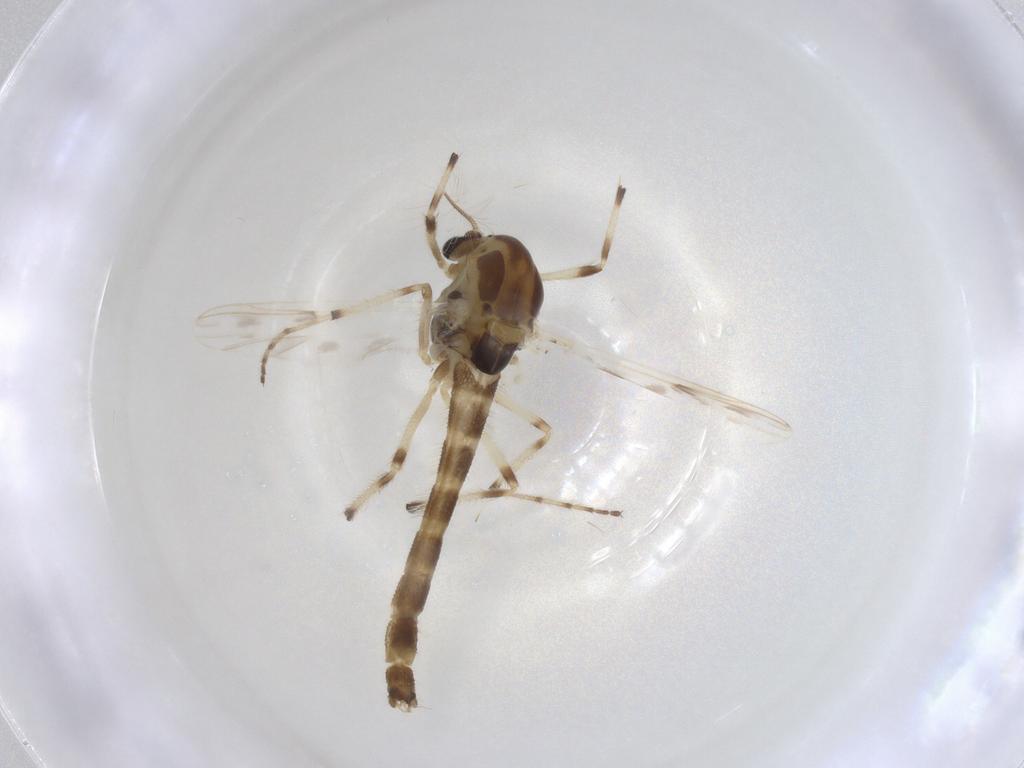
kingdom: Animalia
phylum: Arthropoda
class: Insecta
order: Diptera
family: Chironomidae
